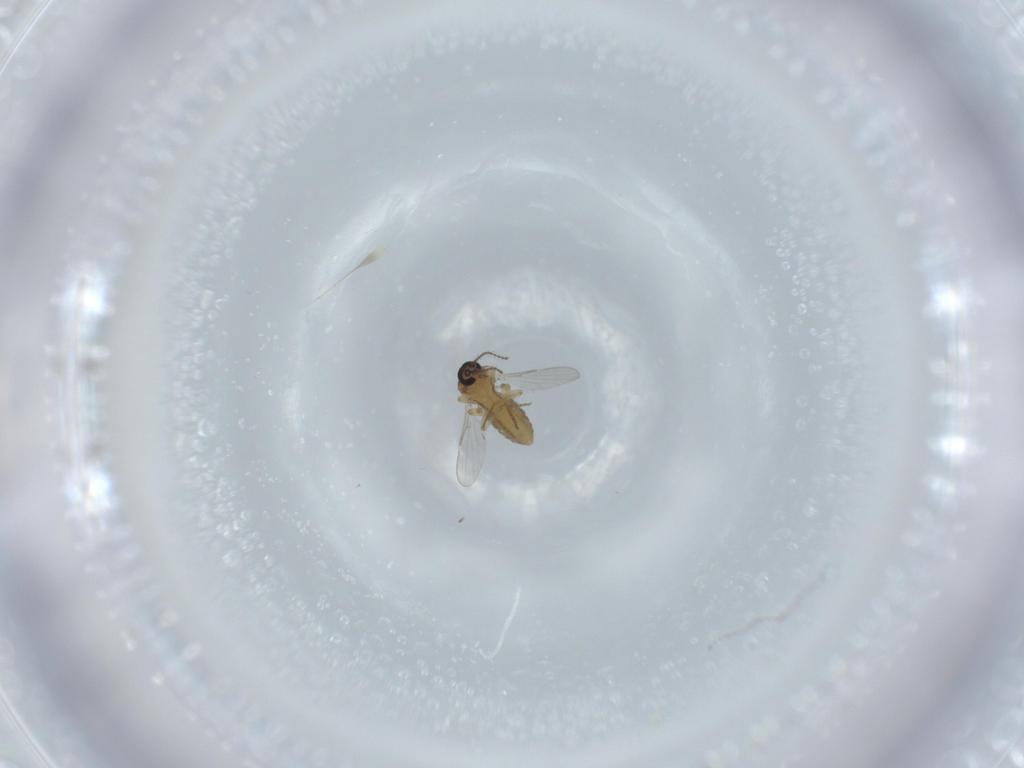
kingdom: Animalia
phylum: Arthropoda
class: Insecta
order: Diptera
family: Ceratopogonidae
